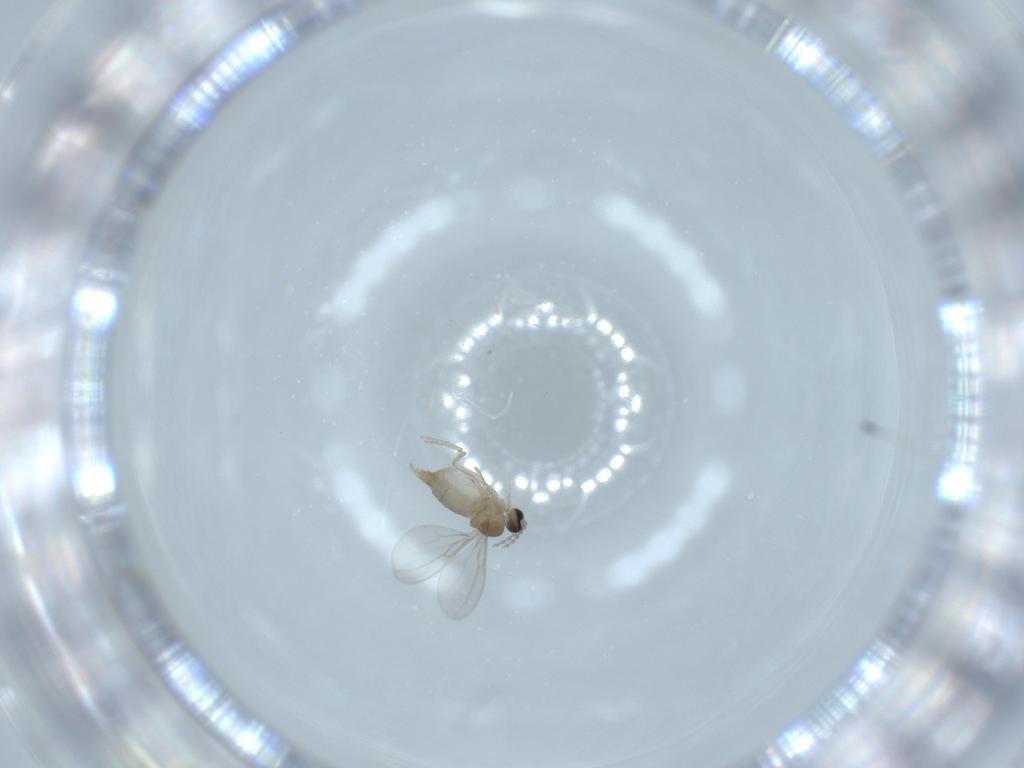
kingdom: Animalia
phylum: Arthropoda
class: Insecta
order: Diptera
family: Cecidomyiidae
